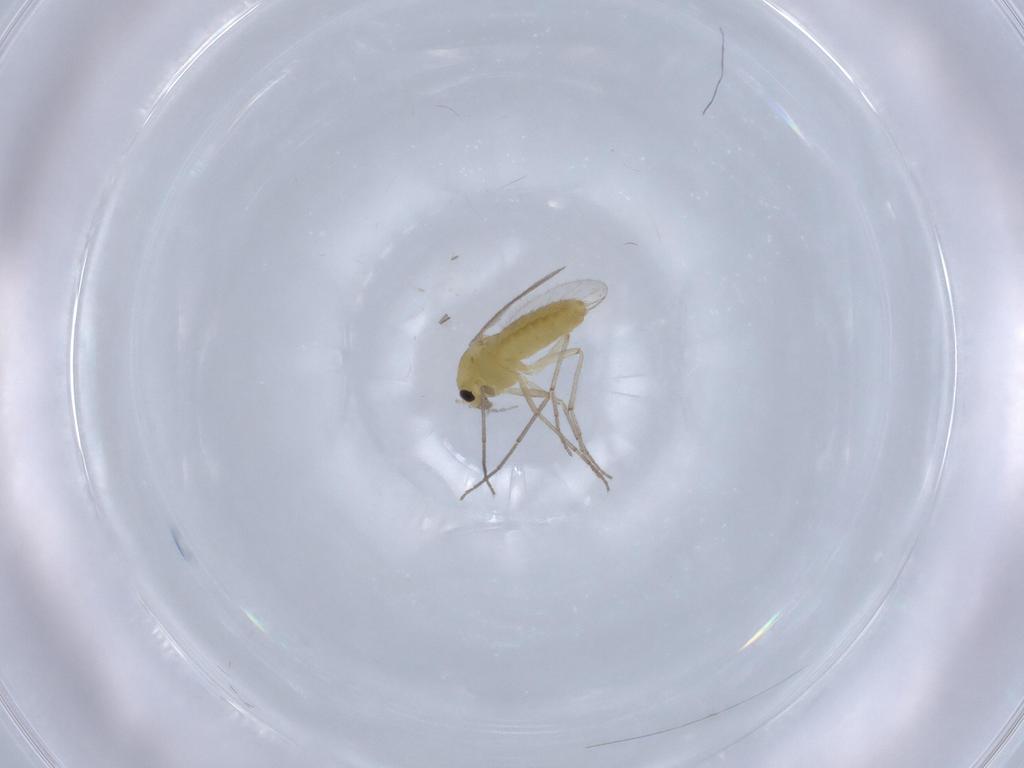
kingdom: Animalia
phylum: Arthropoda
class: Insecta
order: Diptera
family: Chironomidae
